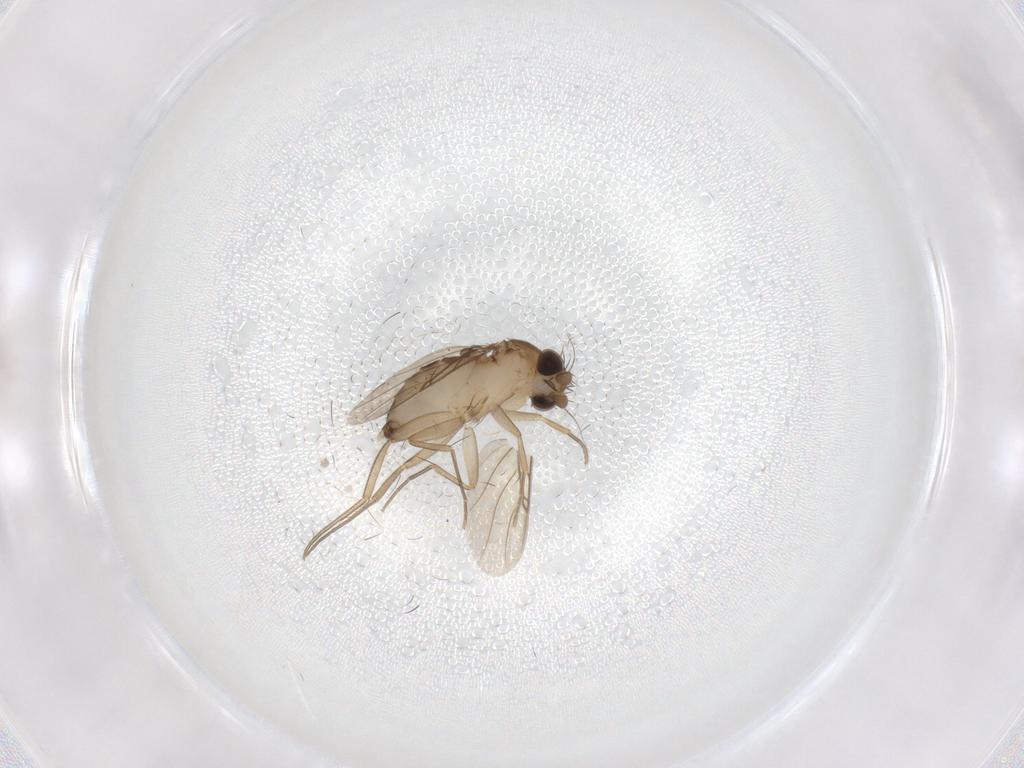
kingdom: Animalia
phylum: Arthropoda
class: Insecta
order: Diptera
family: Phoridae
